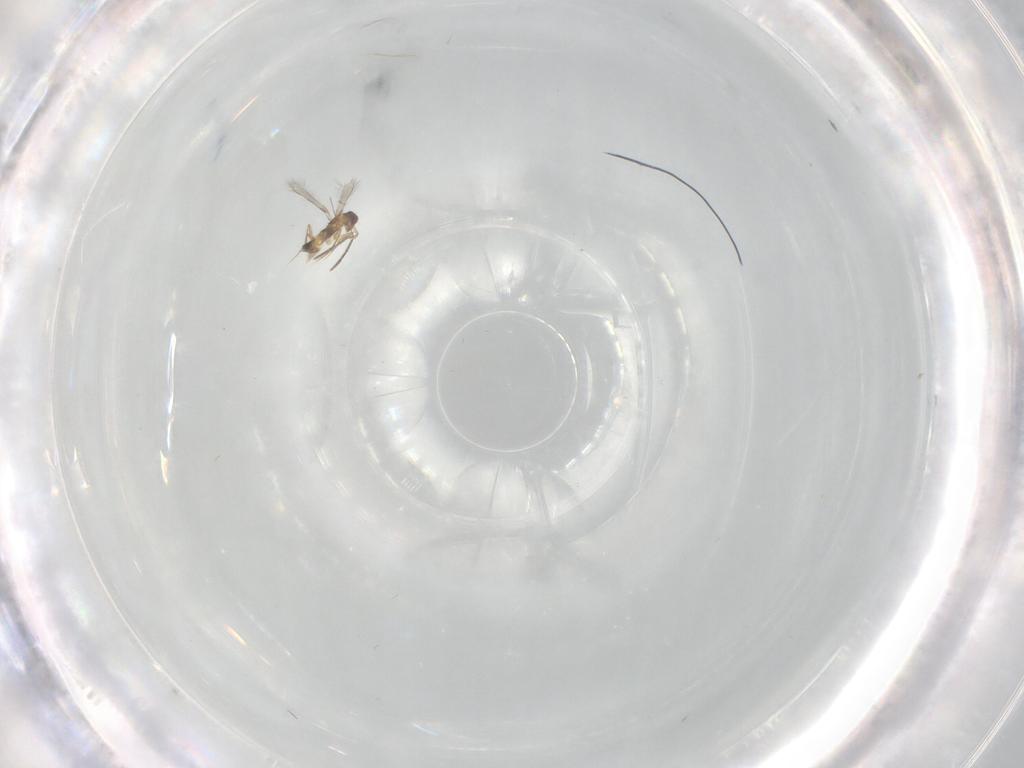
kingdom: Animalia
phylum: Arthropoda
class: Insecta
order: Hymenoptera
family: Mymaridae
